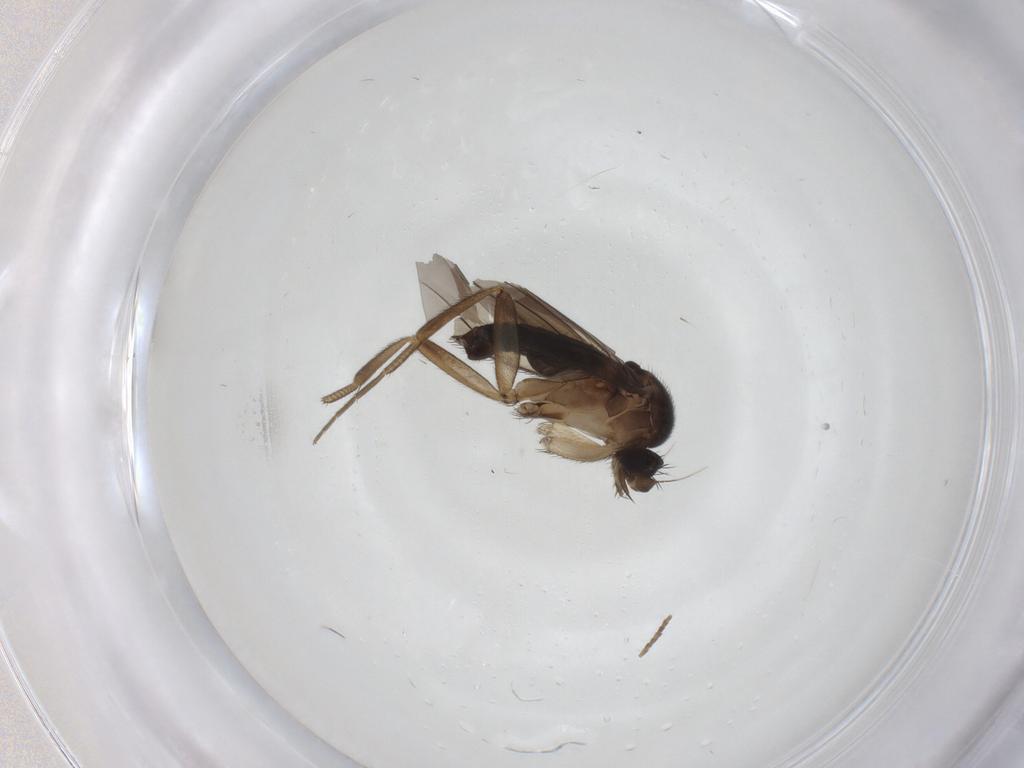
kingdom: Animalia
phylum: Arthropoda
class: Insecta
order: Diptera
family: Phoridae
